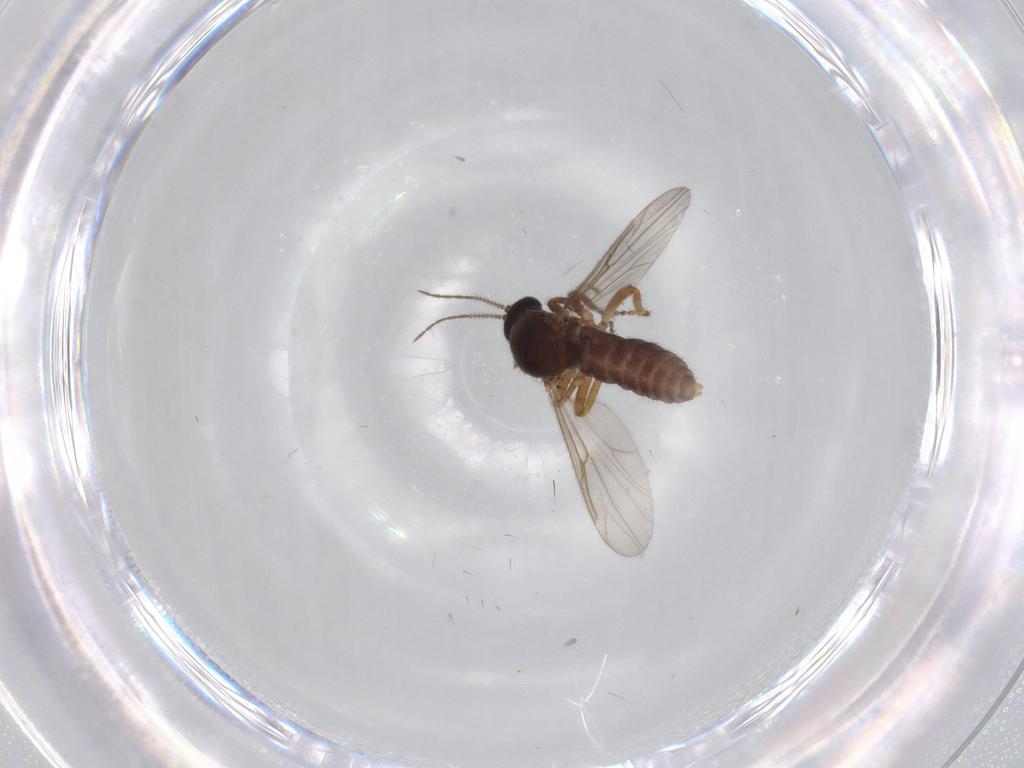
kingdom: Animalia
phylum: Arthropoda
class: Insecta
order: Diptera
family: Cecidomyiidae
